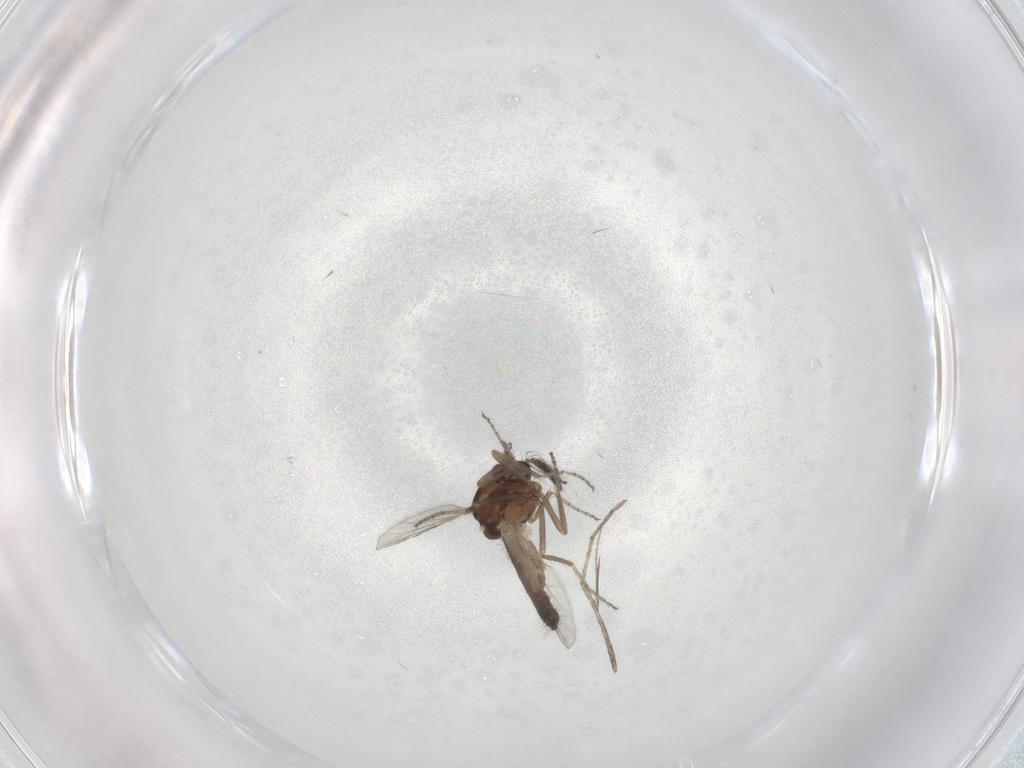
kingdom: Animalia
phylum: Arthropoda
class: Insecta
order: Diptera
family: Ceratopogonidae
